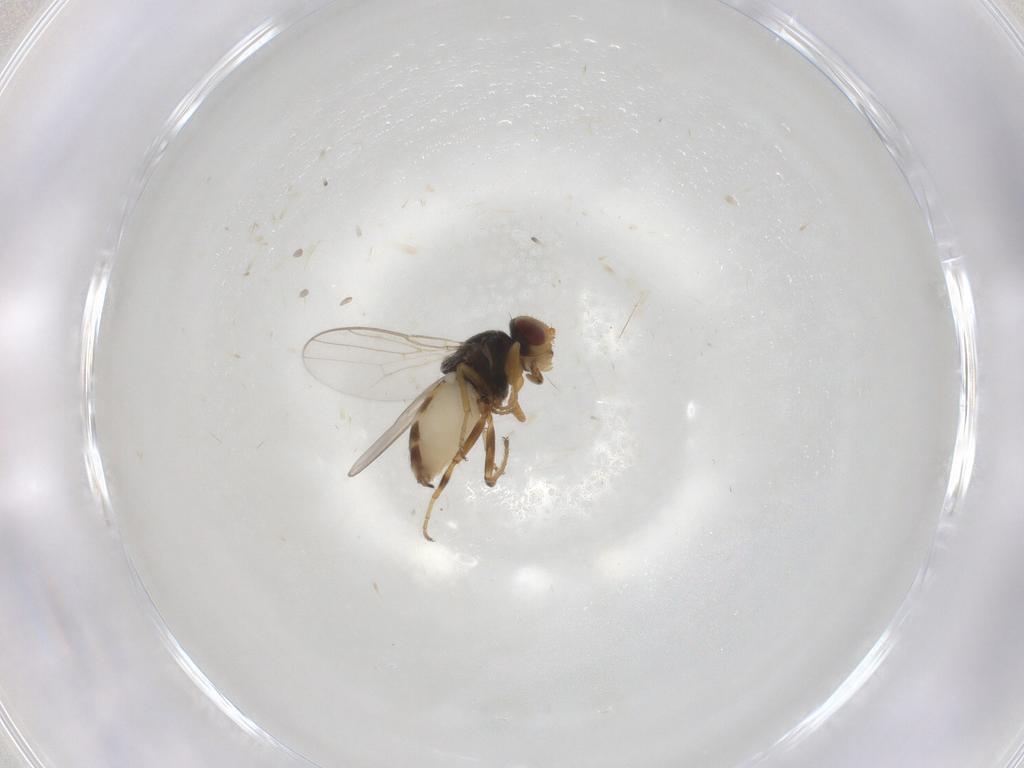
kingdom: Animalia
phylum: Arthropoda
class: Insecta
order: Diptera
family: Chloropidae
